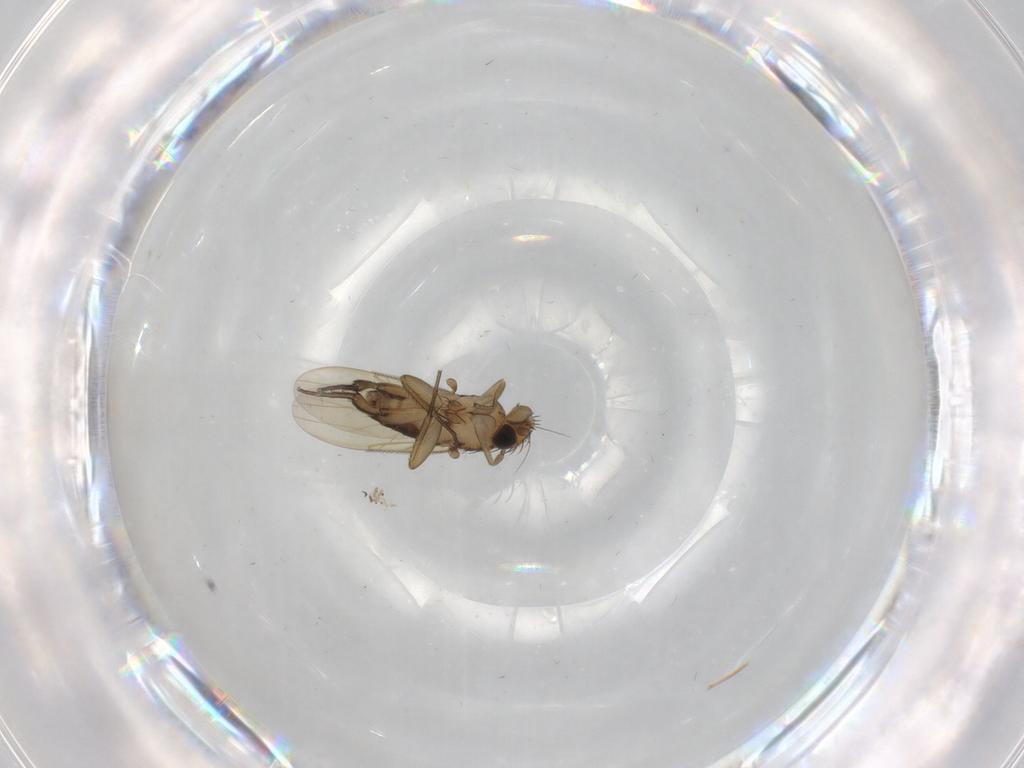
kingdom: Animalia
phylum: Arthropoda
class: Insecta
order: Diptera
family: Phoridae
